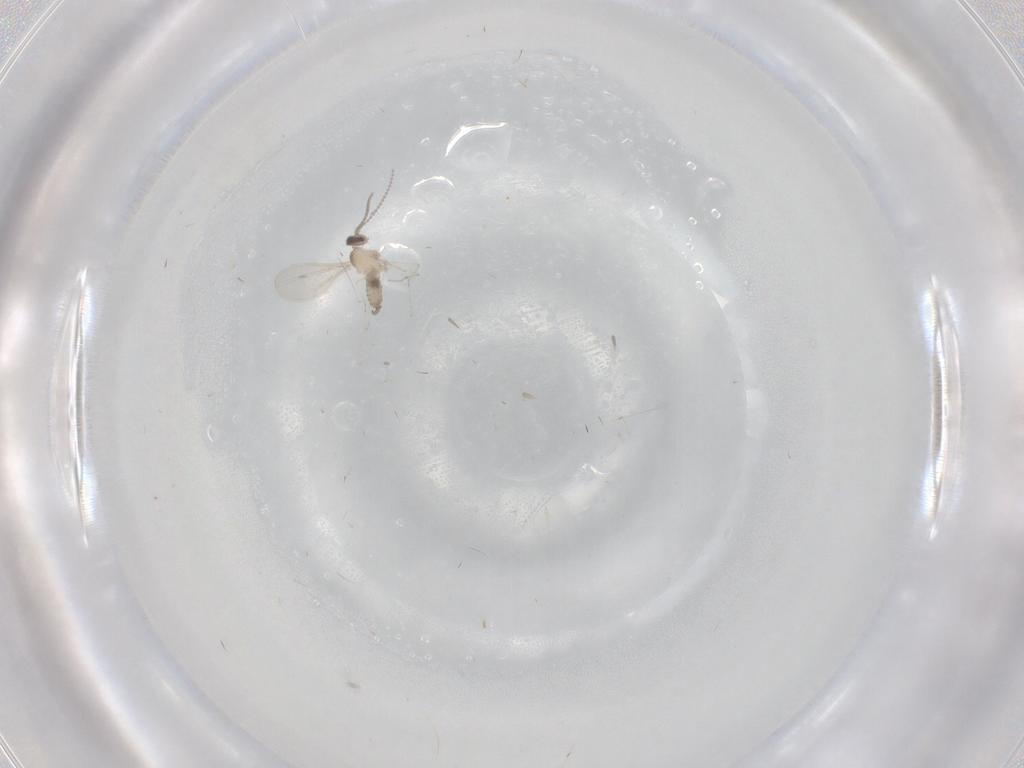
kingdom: Animalia
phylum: Arthropoda
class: Insecta
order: Diptera
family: Cecidomyiidae
